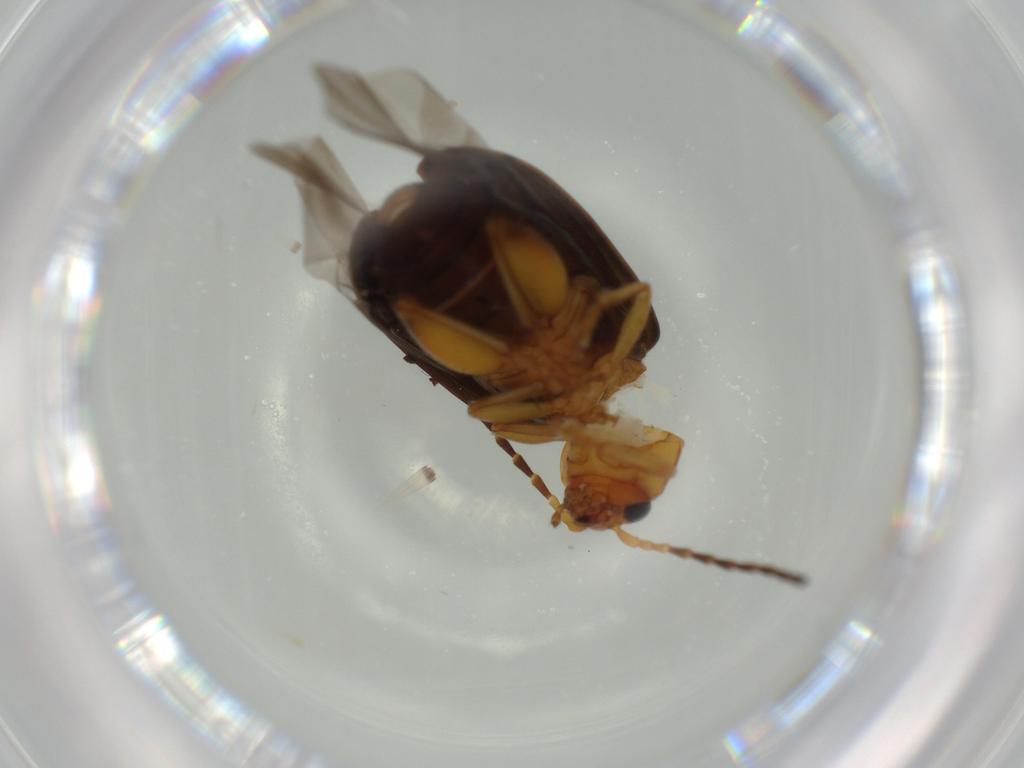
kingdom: Animalia
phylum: Arthropoda
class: Insecta
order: Coleoptera
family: Chrysomelidae
